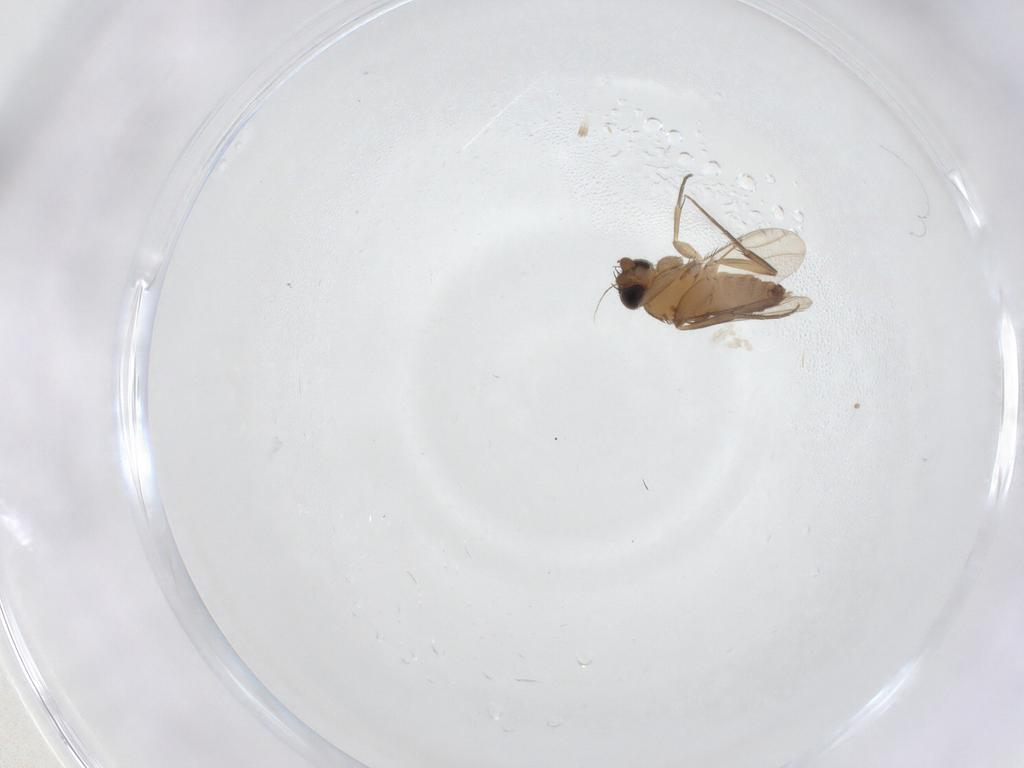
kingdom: Animalia
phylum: Arthropoda
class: Insecta
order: Diptera
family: Phoridae
